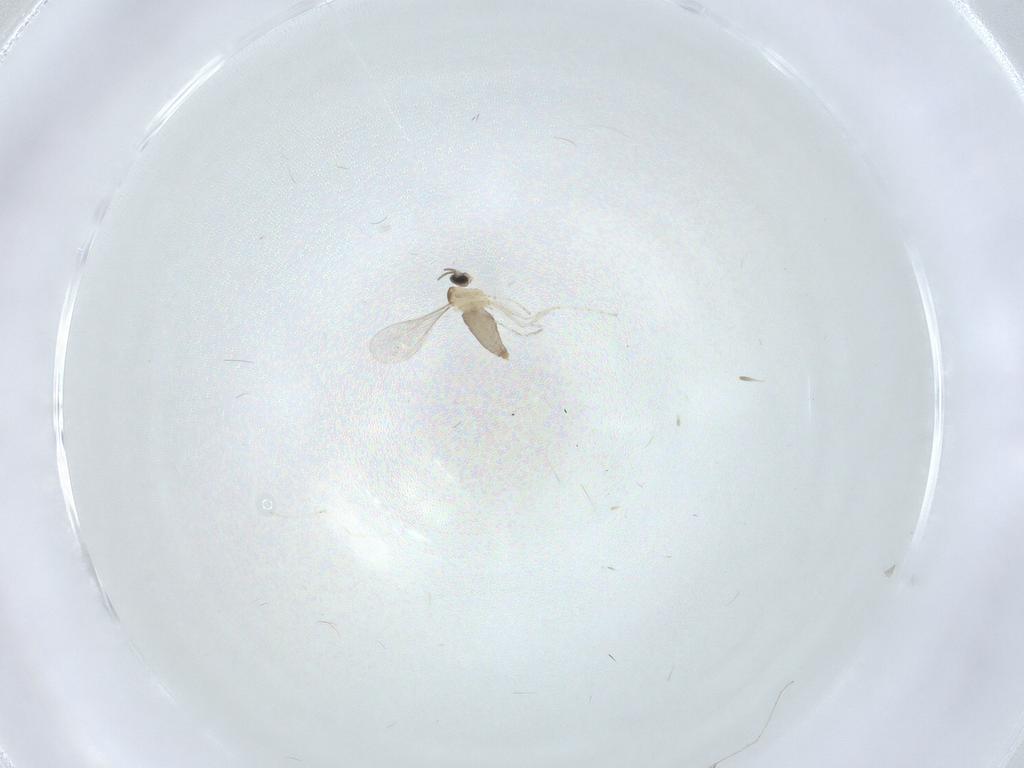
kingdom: Animalia
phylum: Arthropoda
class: Insecta
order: Diptera
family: Cecidomyiidae
